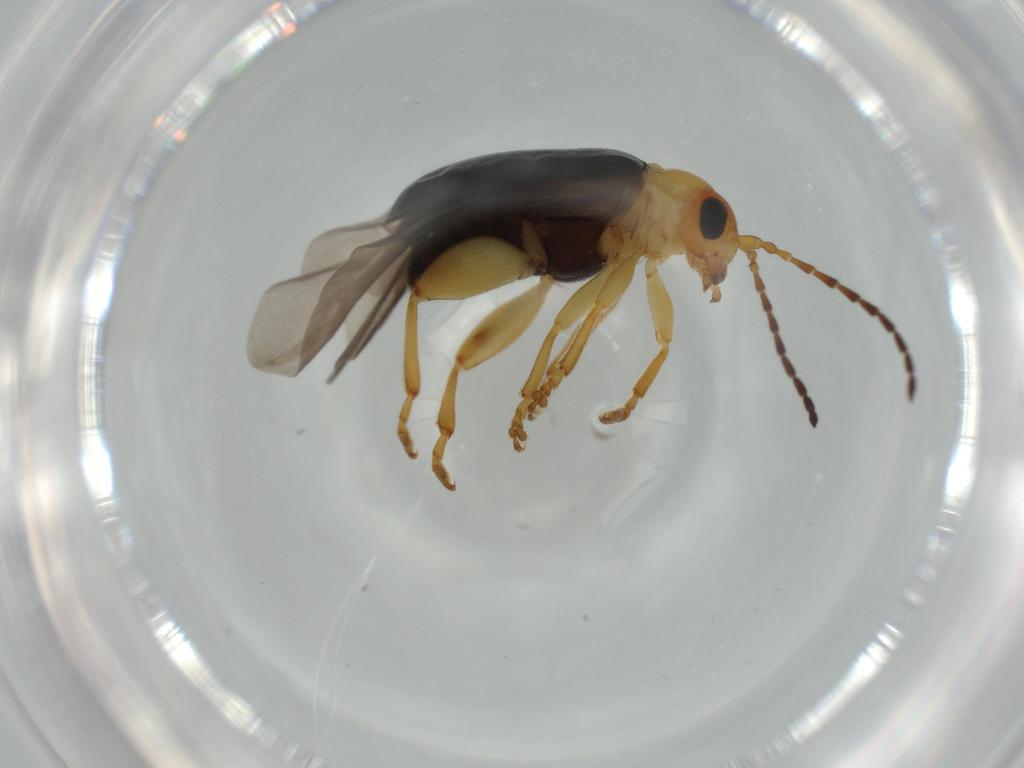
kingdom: Animalia
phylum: Arthropoda
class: Insecta
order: Coleoptera
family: Chrysomelidae
